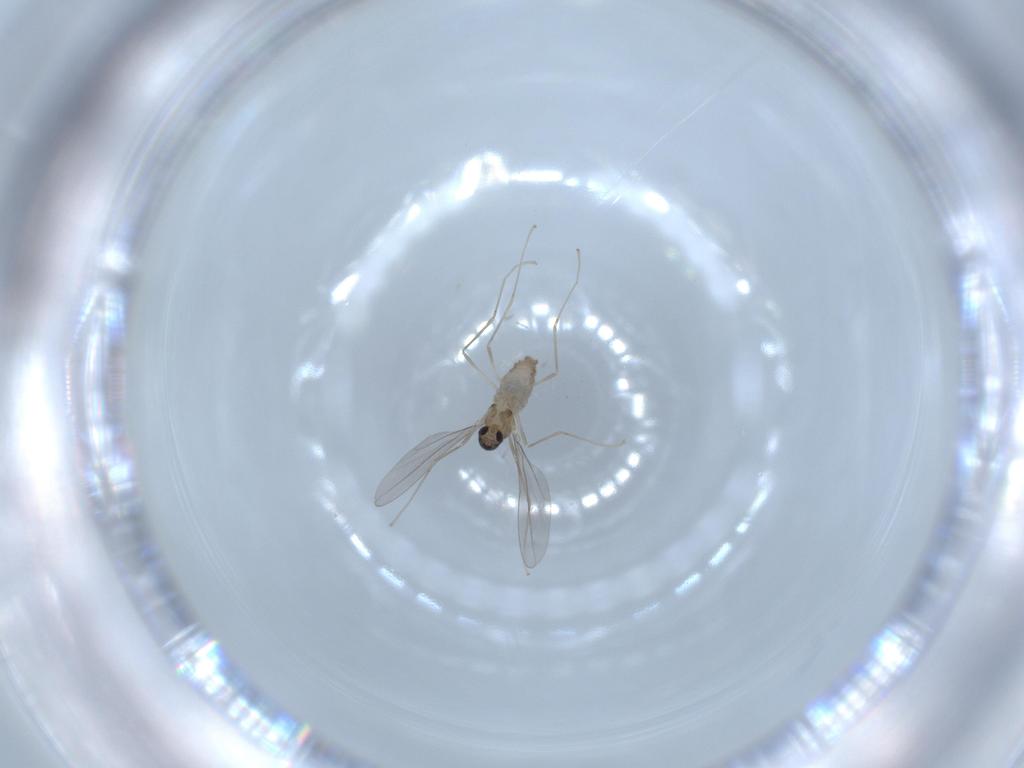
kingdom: Animalia
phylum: Arthropoda
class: Insecta
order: Diptera
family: Cecidomyiidae
